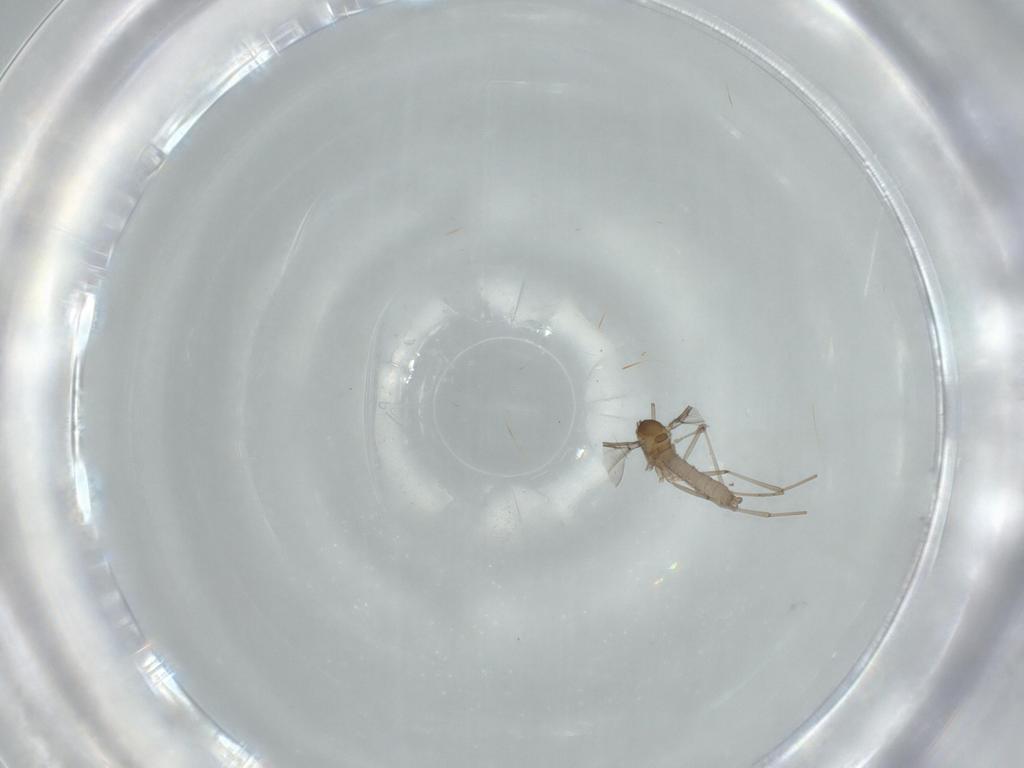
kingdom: Animalia
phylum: Arthropoda
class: Insecta
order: Diptera
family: Cecidomyiidae
